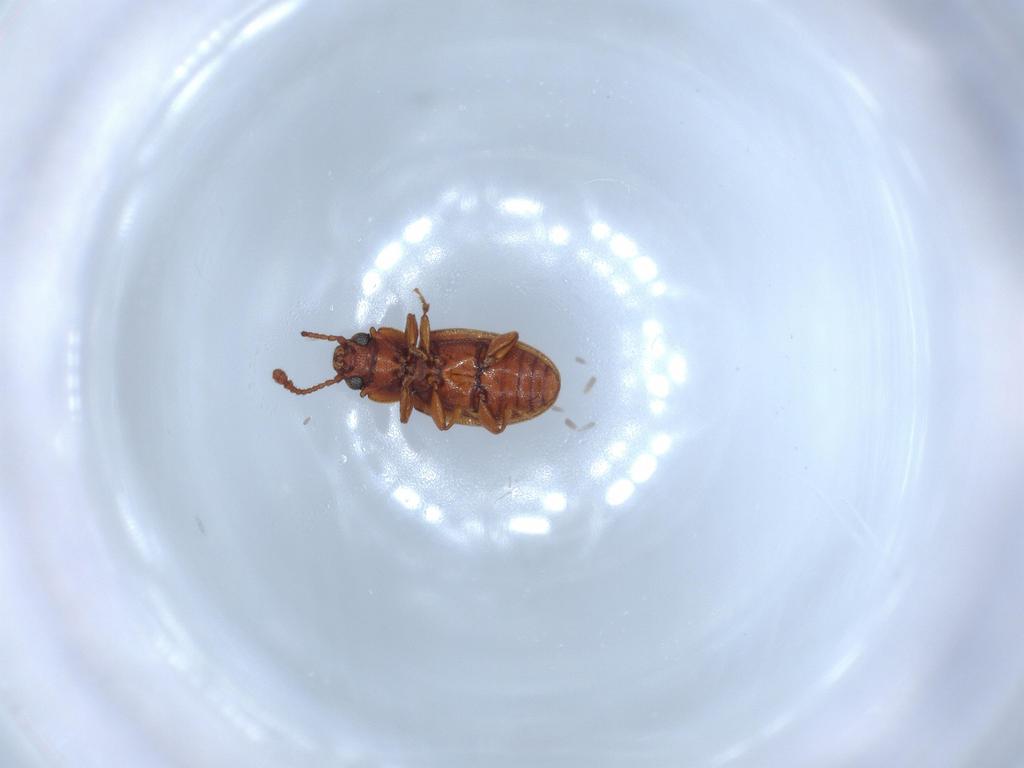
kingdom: Animalia
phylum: Arthropoda
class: Insecta
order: Coleoptera
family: Silvanidae
